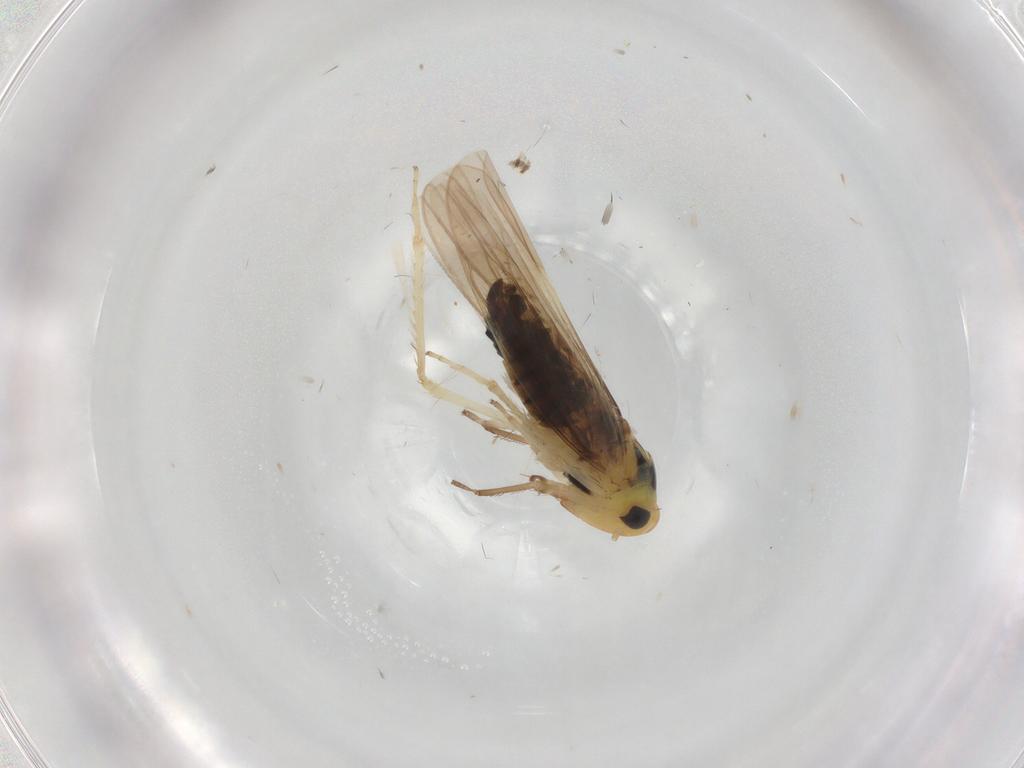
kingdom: Animalia
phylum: Arthropoda
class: Insecta
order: Hemiptera
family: Cicadellidae
